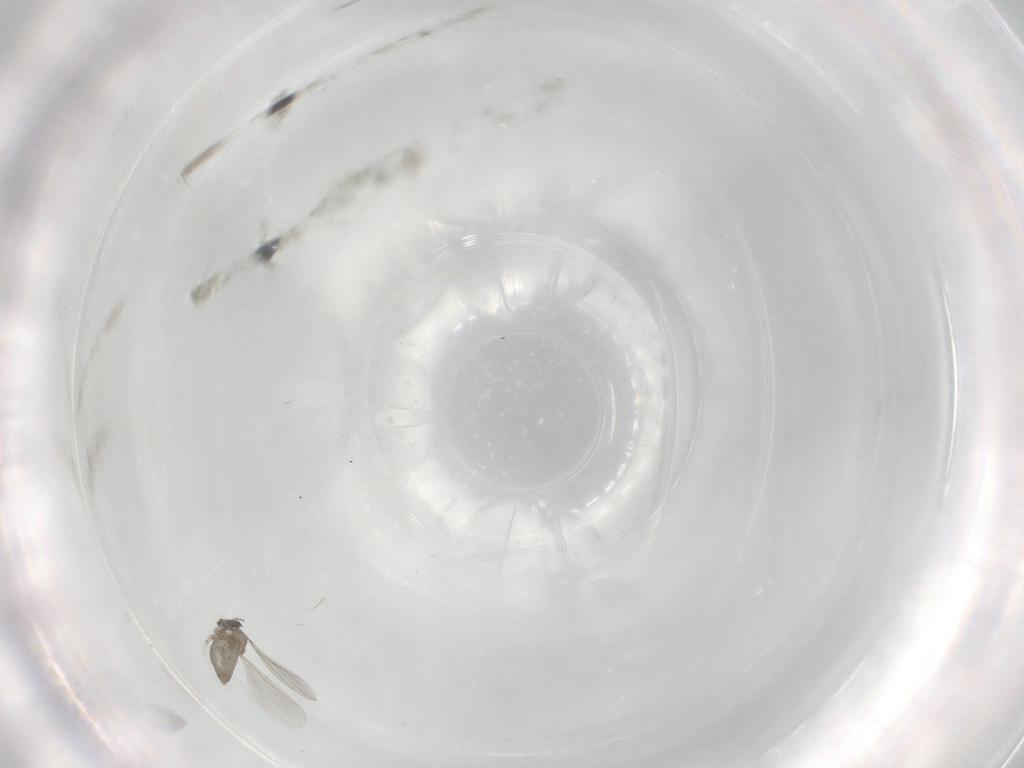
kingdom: Animalia
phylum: Arthropoda
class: Insecta
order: Diptera
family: Cecidomyiidae
